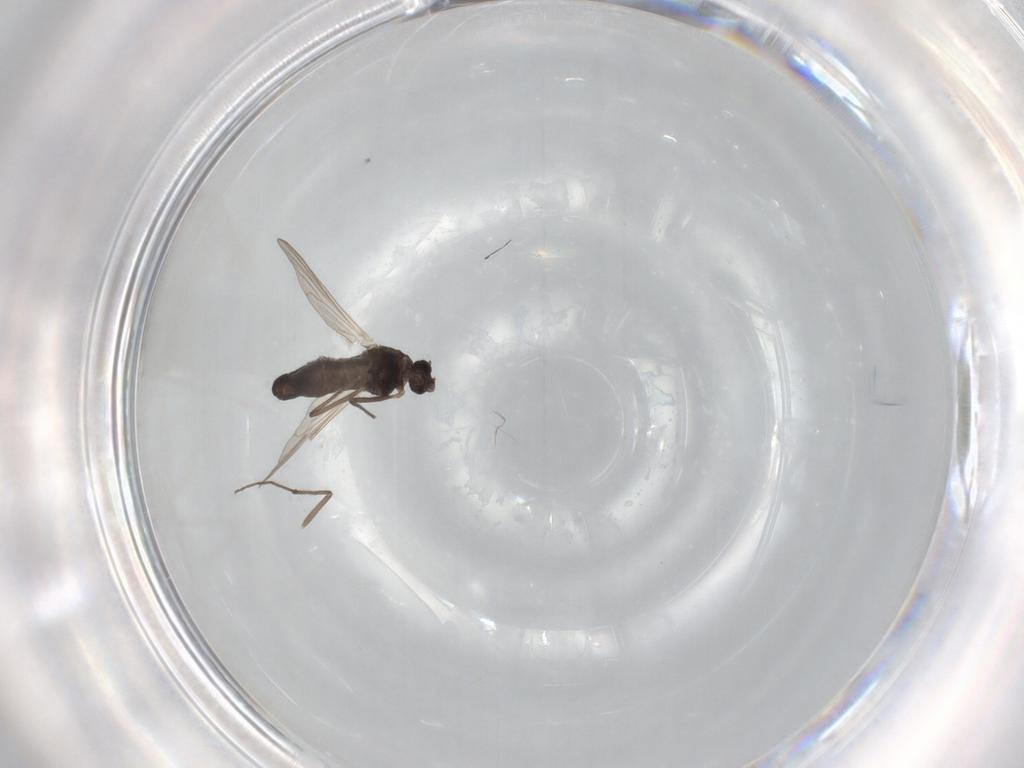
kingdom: Animalia
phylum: Arthropoda
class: Insecta
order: Diptera
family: Chironomidae
